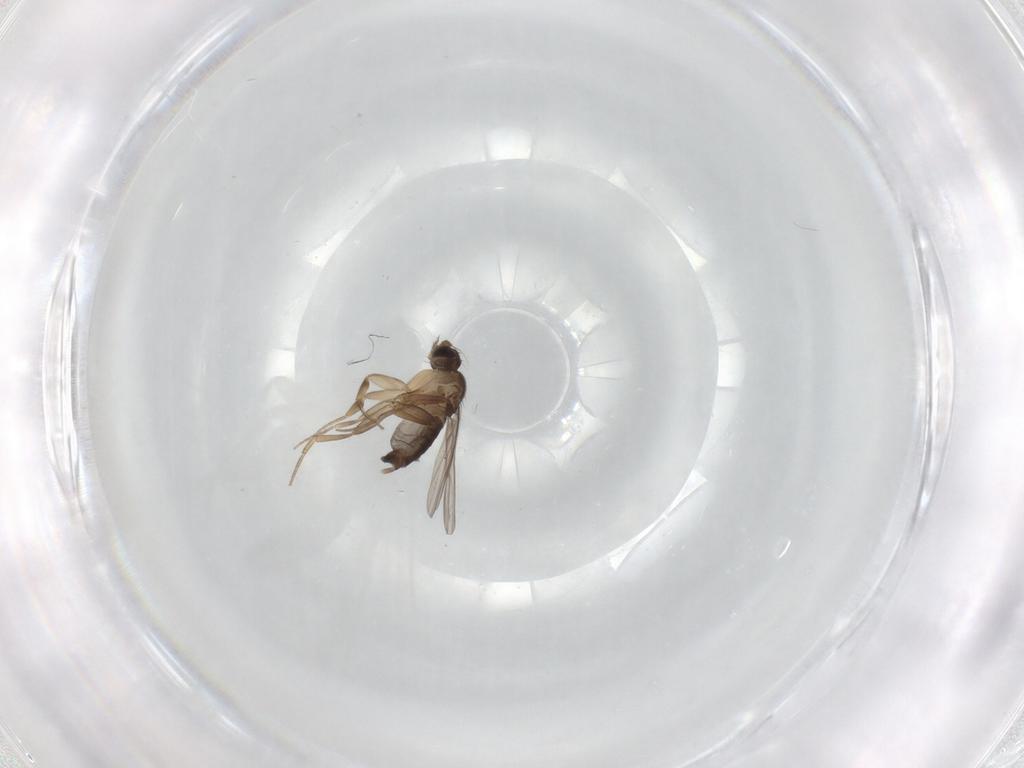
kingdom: Animalia
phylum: Arthropoda
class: Insecta
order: Diptera
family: Phoridae
